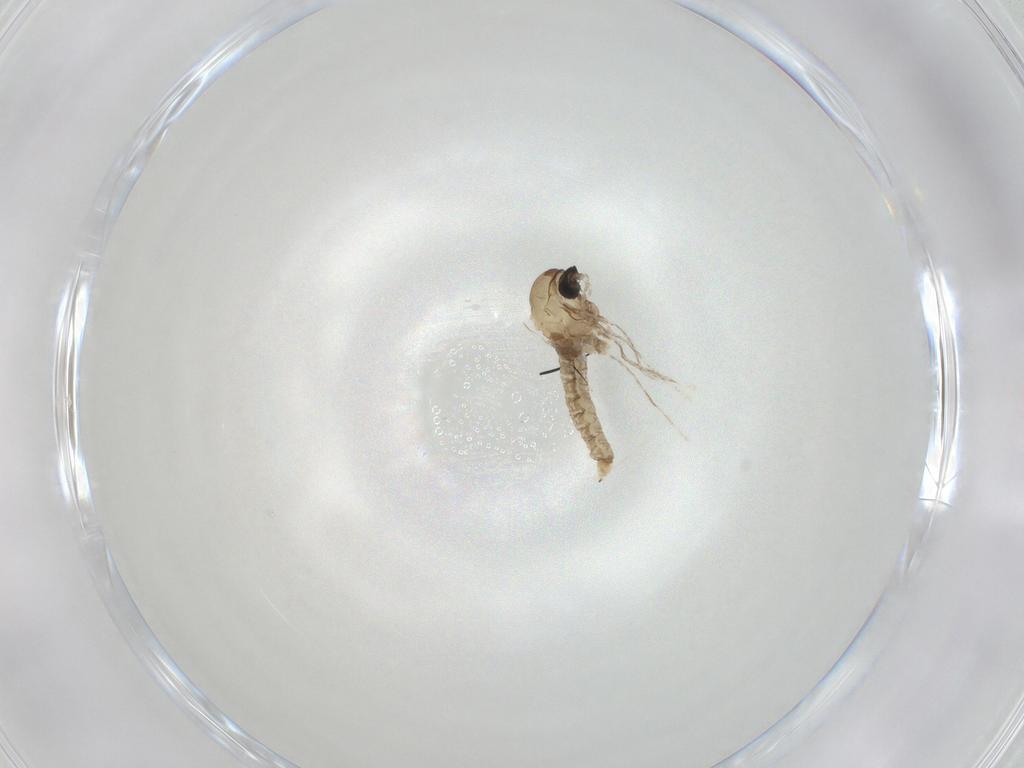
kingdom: Animalia
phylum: Arthropoda
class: Insecta
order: Diptera
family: Cecidomyiidae
